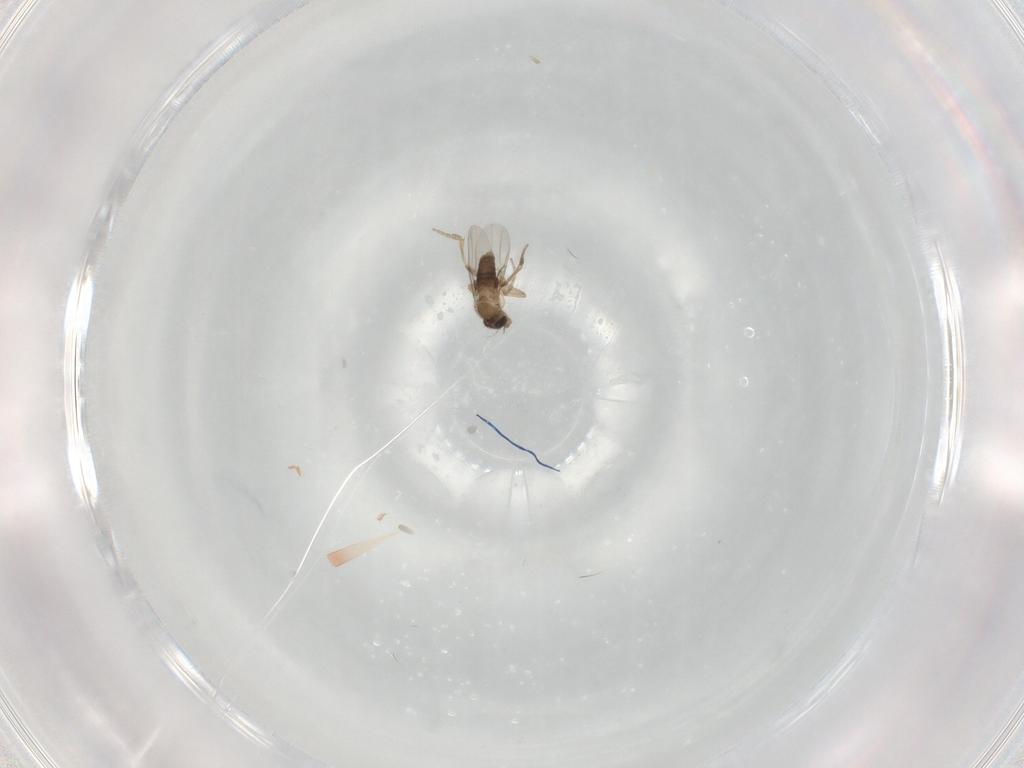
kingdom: Animalia
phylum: Arthropoda
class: Insecta
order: Diptera
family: Phoridae
